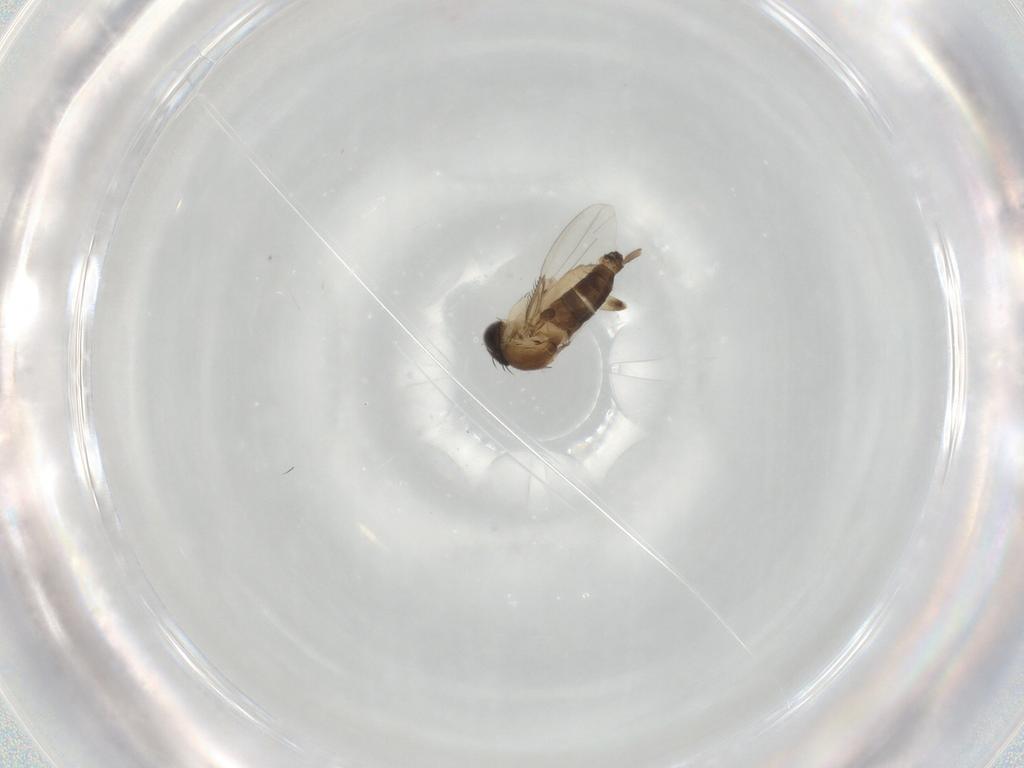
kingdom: Animalia
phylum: Arthropoda
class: Insecta
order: Diptera
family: Phoridae
